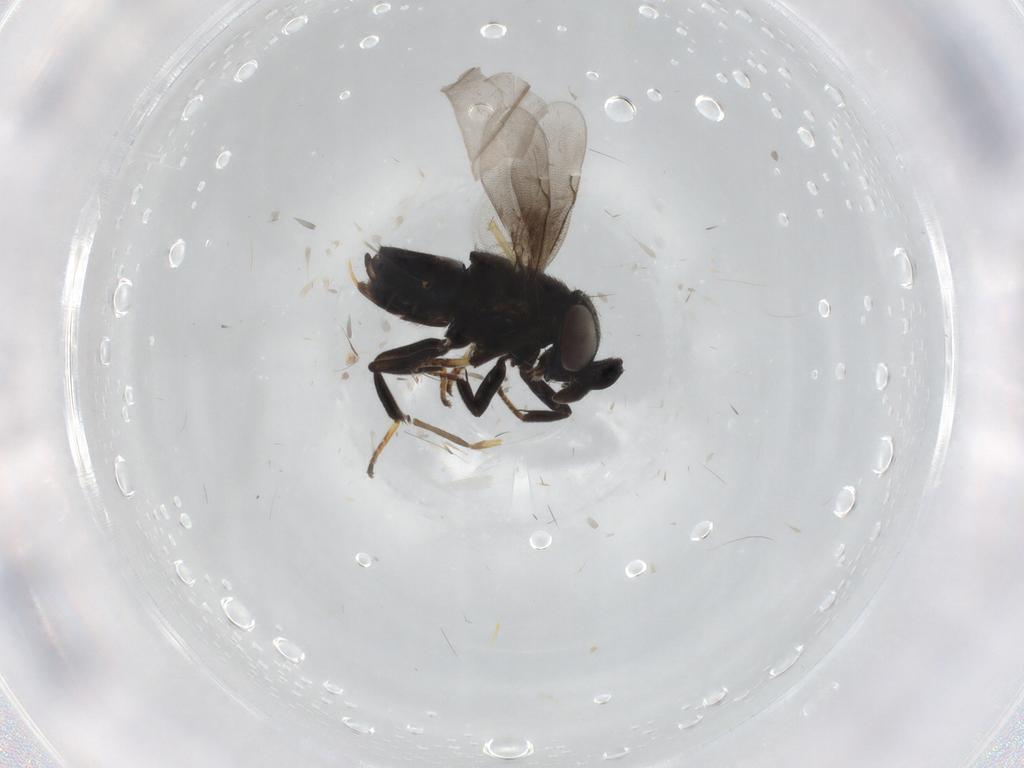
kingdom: Animalia
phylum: Arthropoda
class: Insecta
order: Hymenoptera
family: Encyrtidae
